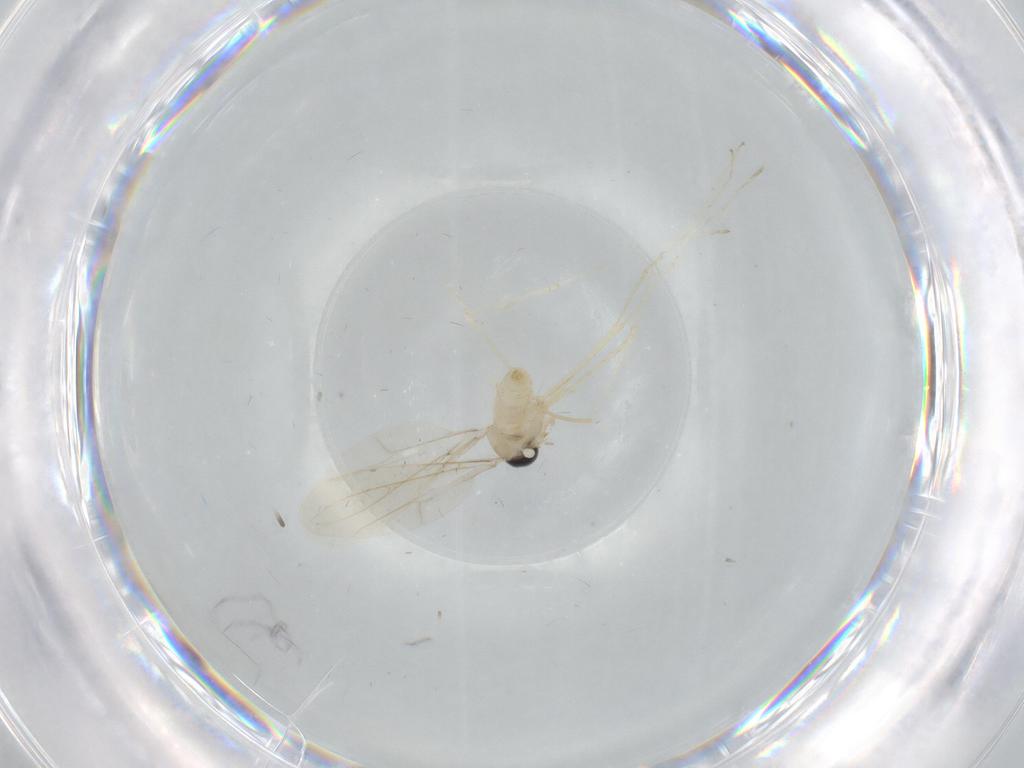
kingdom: Animalia
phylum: Arthropoda
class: Insecta
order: Diptera
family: Cecidomyiidae
